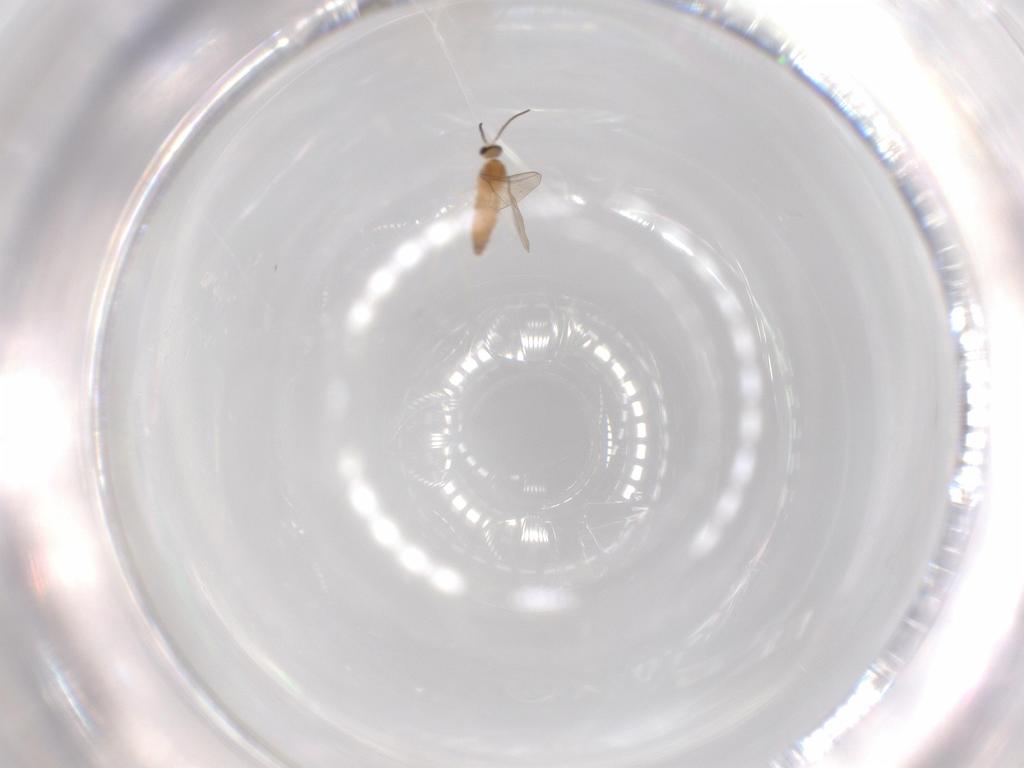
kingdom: Animalia
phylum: Arthropoda
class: Insecta
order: Diptera
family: Cecidomyiidae
